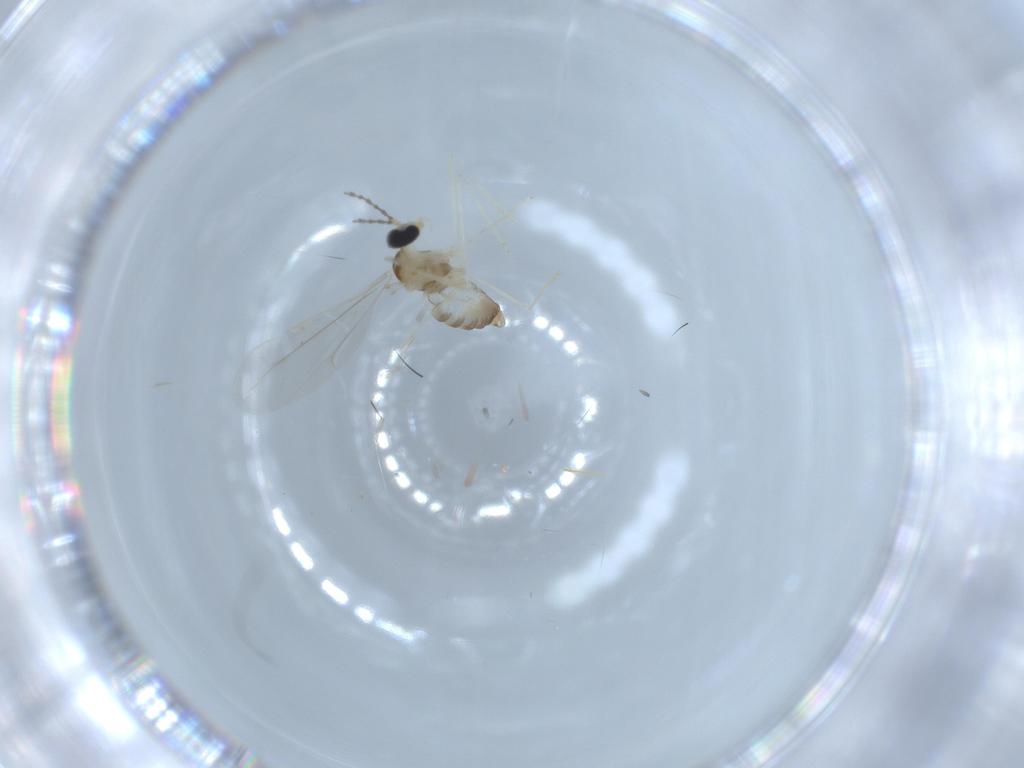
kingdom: Animalia
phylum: Arthropoda
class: Insecta
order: Diptera
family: Cecidomyiidae
